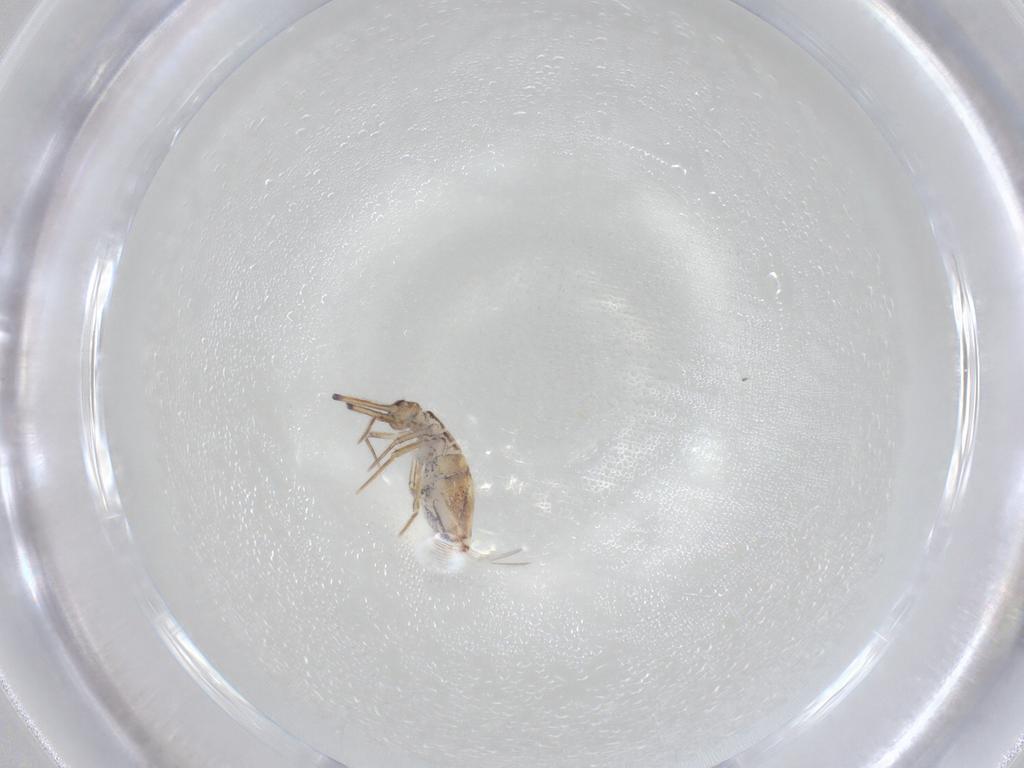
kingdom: Animalia
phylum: Arthropoda
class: Collembola
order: Entomobryomorpha
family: Paronellidae
